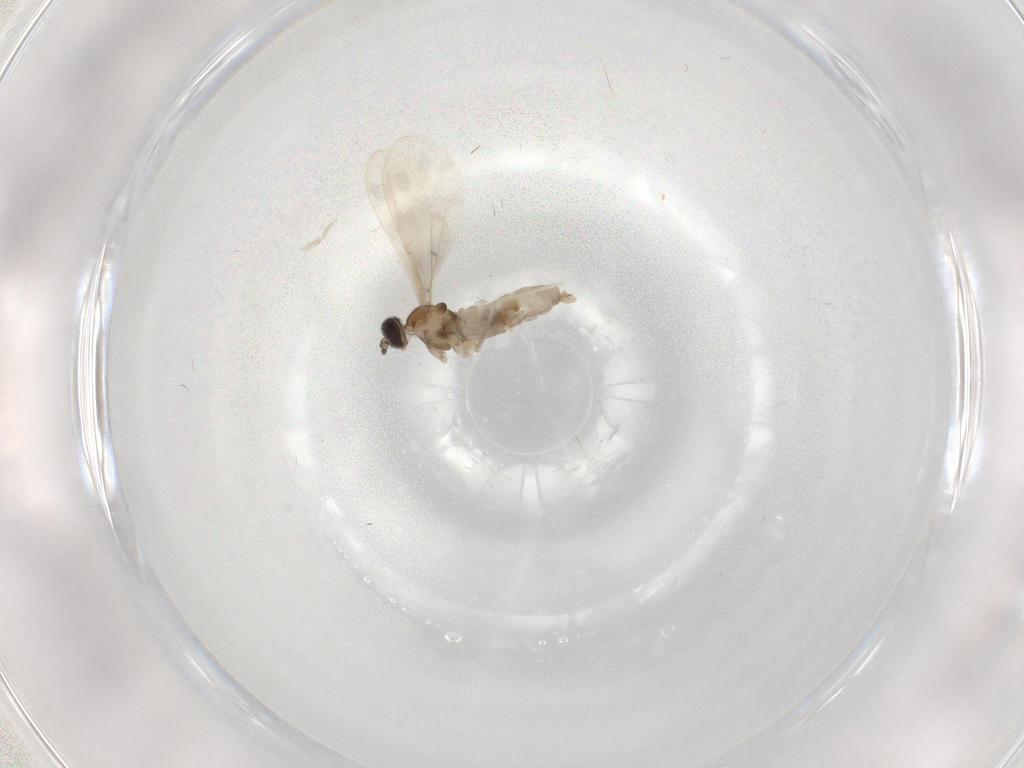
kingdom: Animalia
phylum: Arthropoda
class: Insecta
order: Diptera
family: Cecidomyiidae
